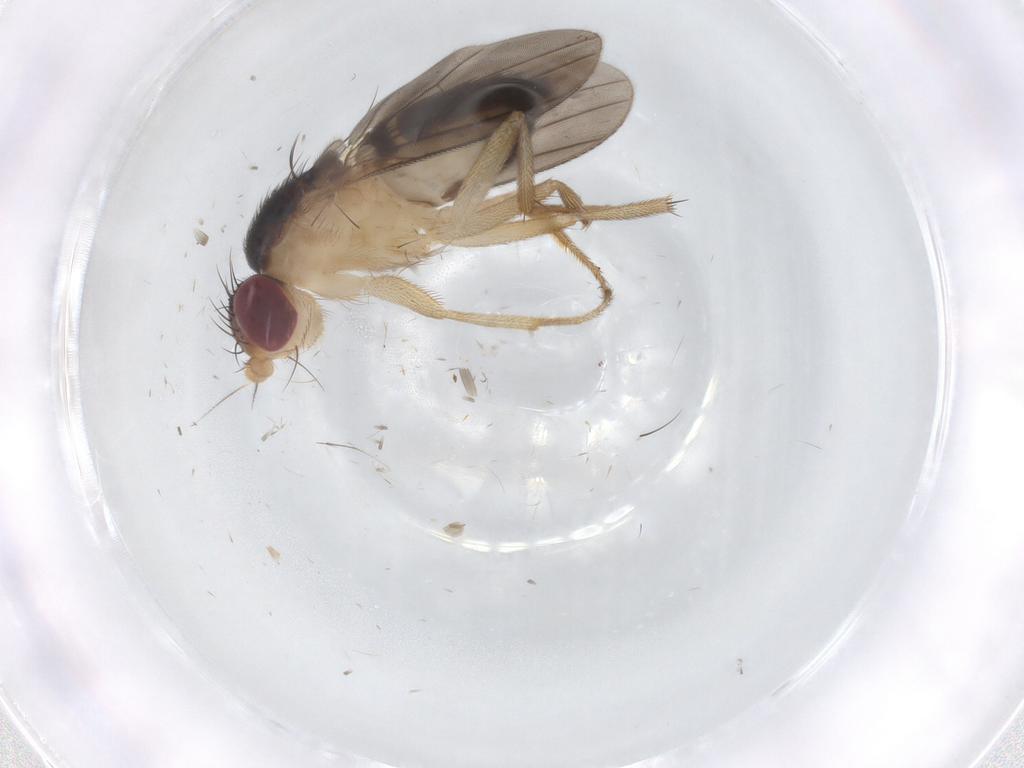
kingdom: Animalia
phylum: Arthropoda
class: Insecta
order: Diptera
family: Chironomidae
